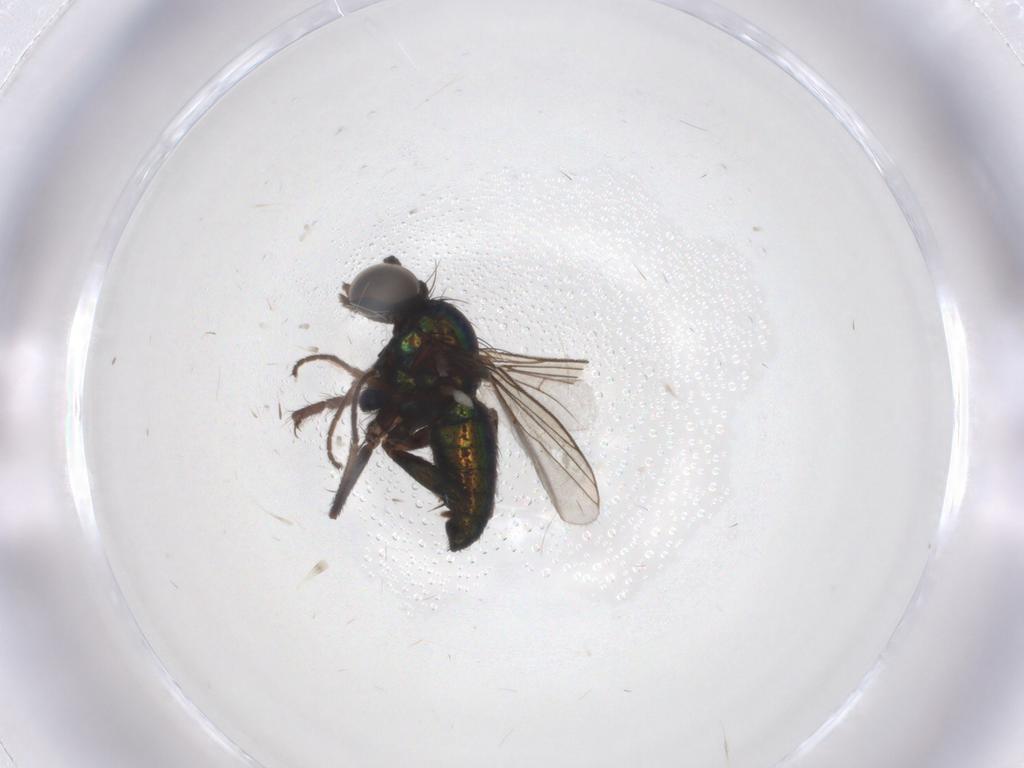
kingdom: Animalia
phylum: Arthropoda
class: Insecta
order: Diptera
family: Dolichopodidae
